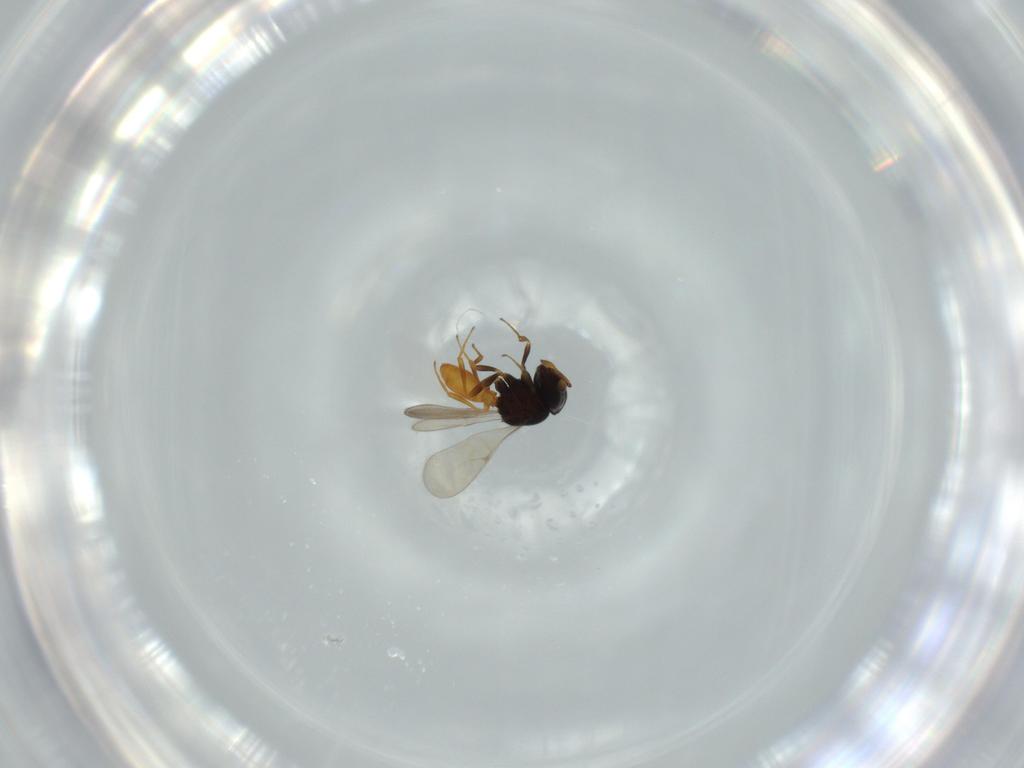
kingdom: Animalia
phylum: Arthropoda
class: Insecta
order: Hymenoptera
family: Scelionidae
